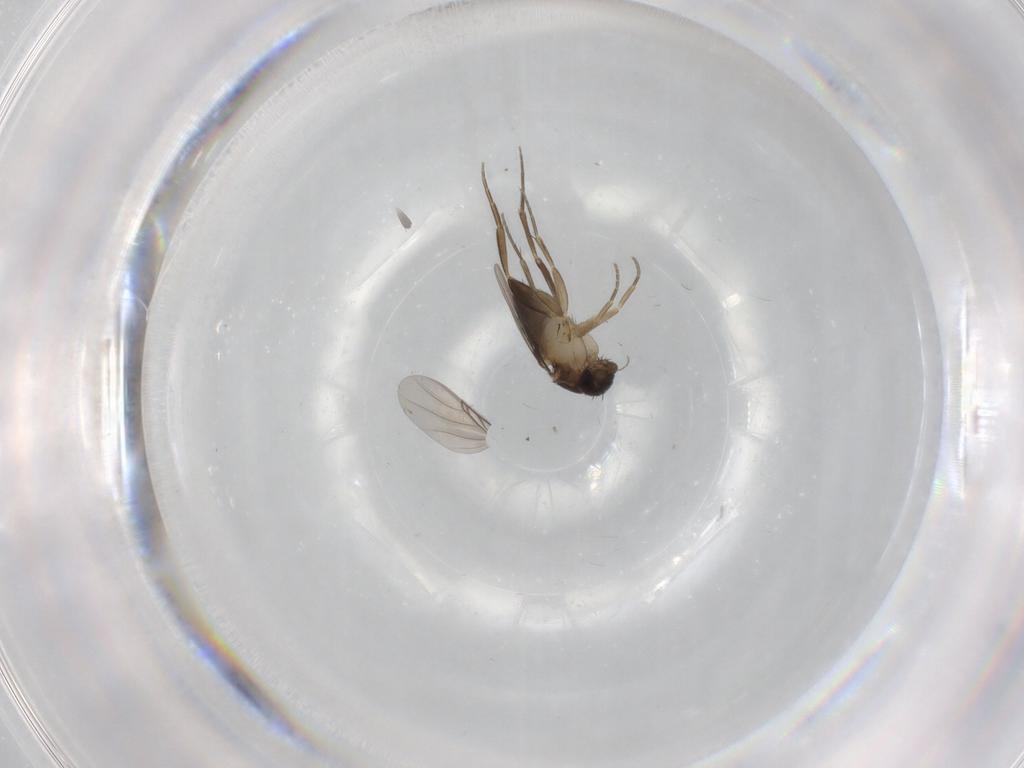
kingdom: Animalia
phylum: Arthropoda
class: Insecta
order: Diptera
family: Phoridae
